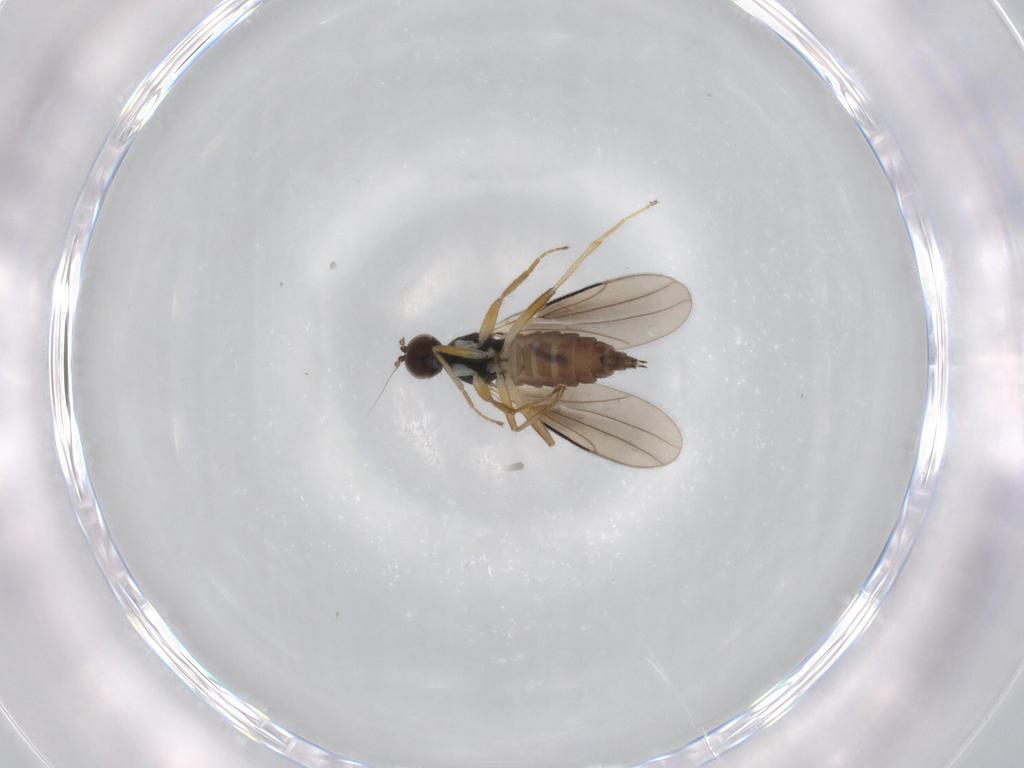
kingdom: Animalia
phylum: Arthropoda
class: Insecta
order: Diptera
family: Hybotidae
